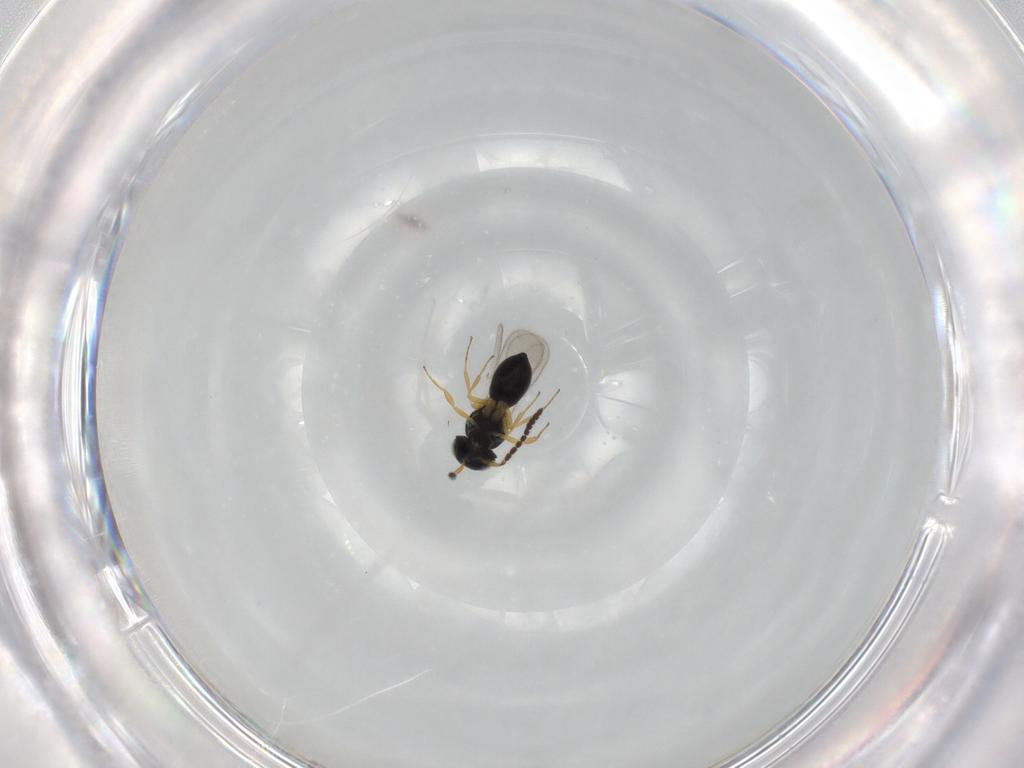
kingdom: Animalia
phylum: Arthropoda
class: Insecta
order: Hymenoptera
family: Scelionidae
